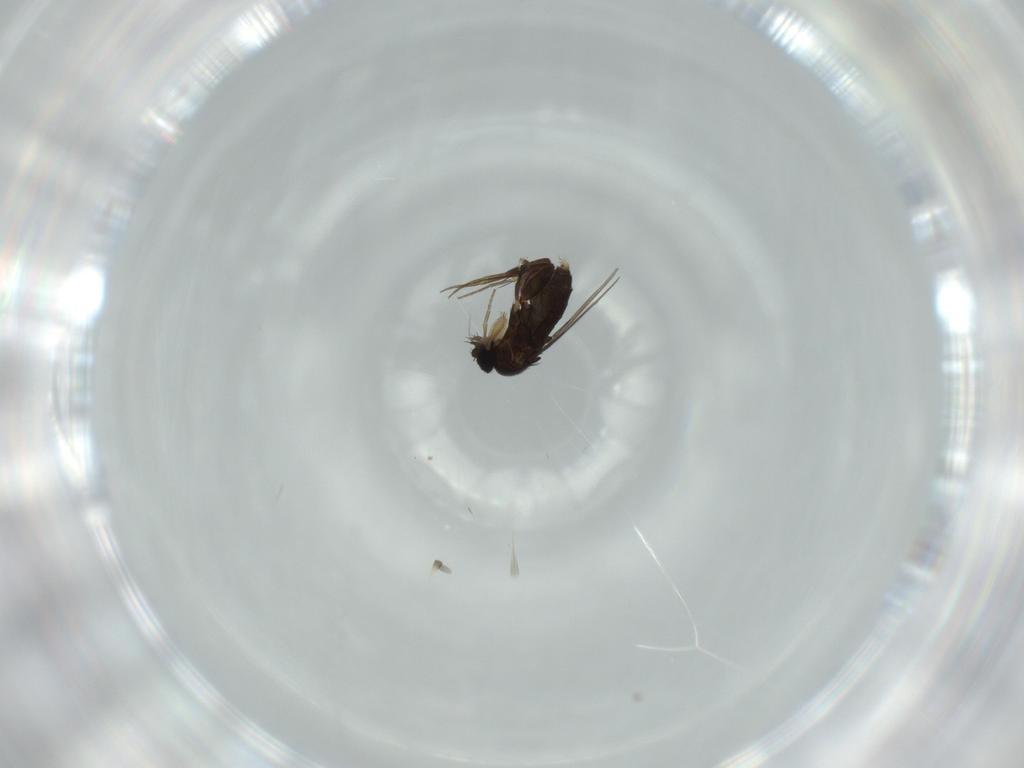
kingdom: Animalia
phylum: Arthropoda
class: Insecta
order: Diptera
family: Phoridae
